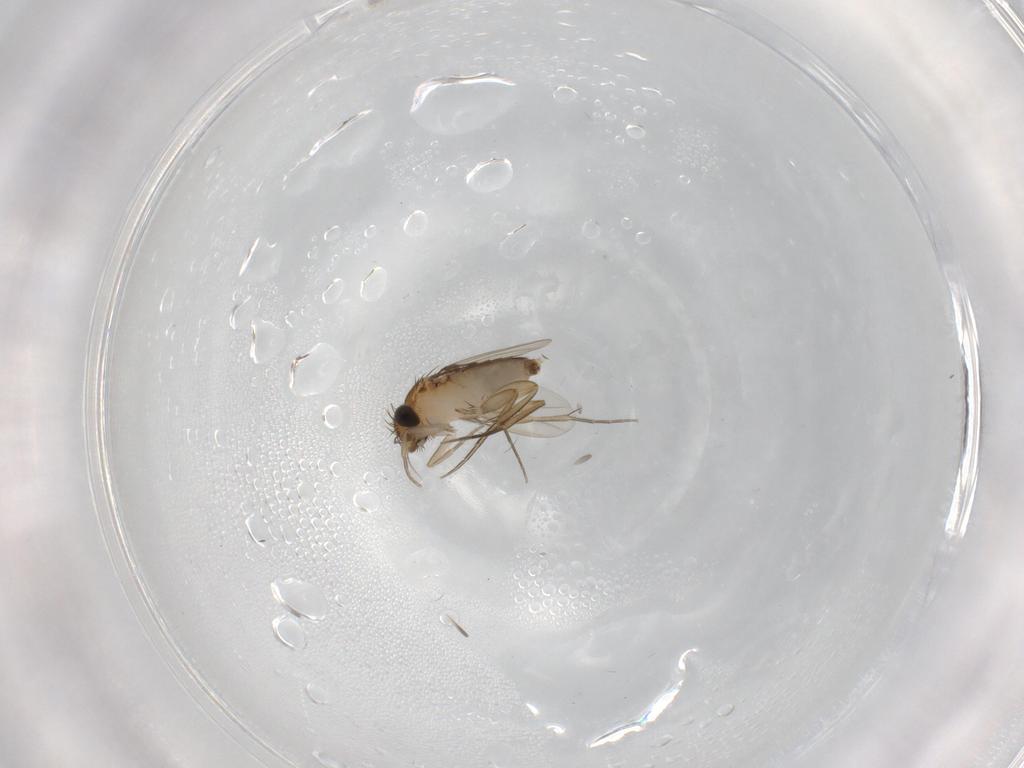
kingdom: Animalia
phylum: Arthropoda
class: Insecta
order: Diptera
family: Phoridae
